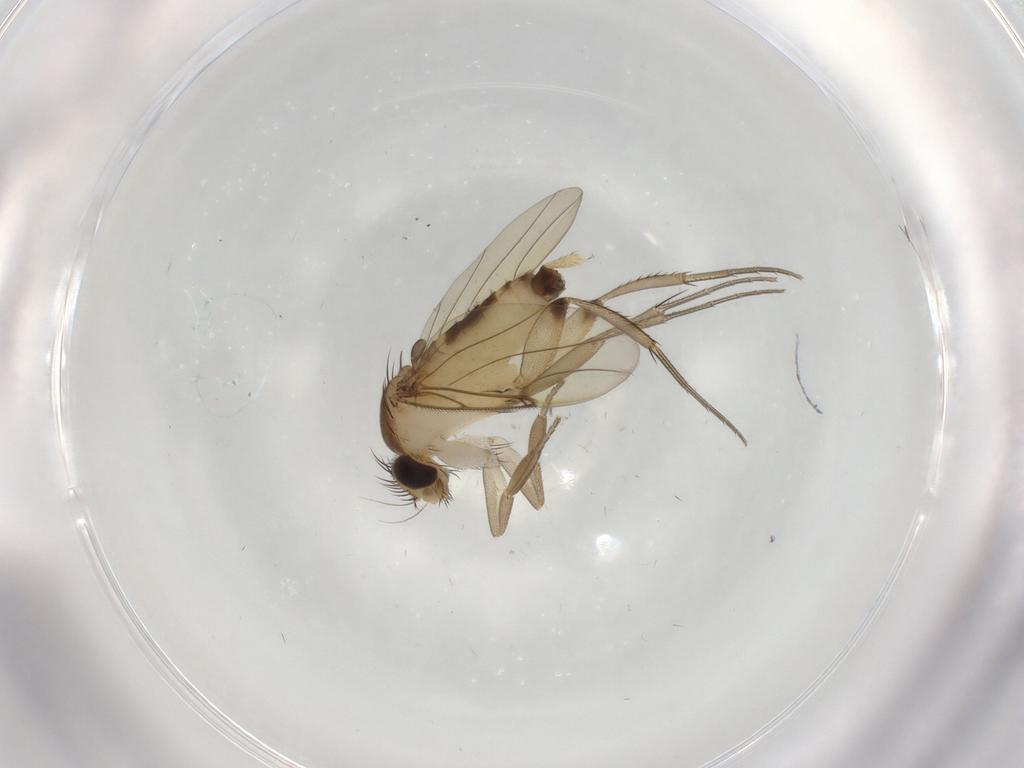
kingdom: Animalia
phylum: Arthropoda
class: Insecta
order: Diptera
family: Phoridae
